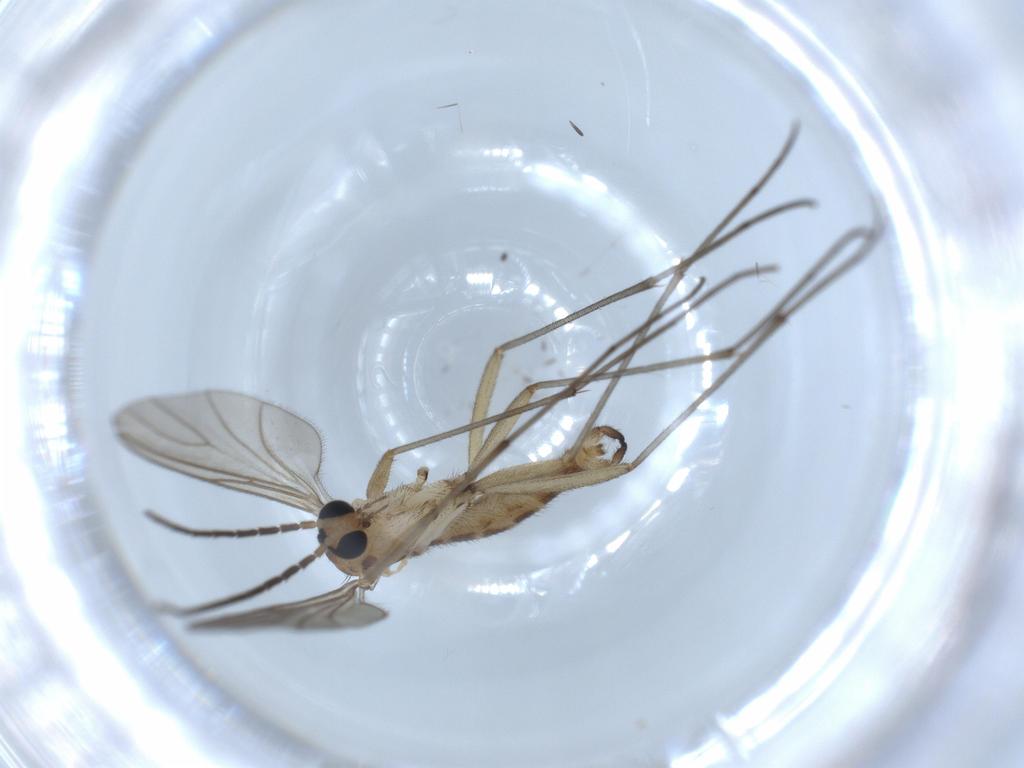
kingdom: Animalia
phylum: Arthropoda
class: Insecta
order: Diptera
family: Sciaridae
